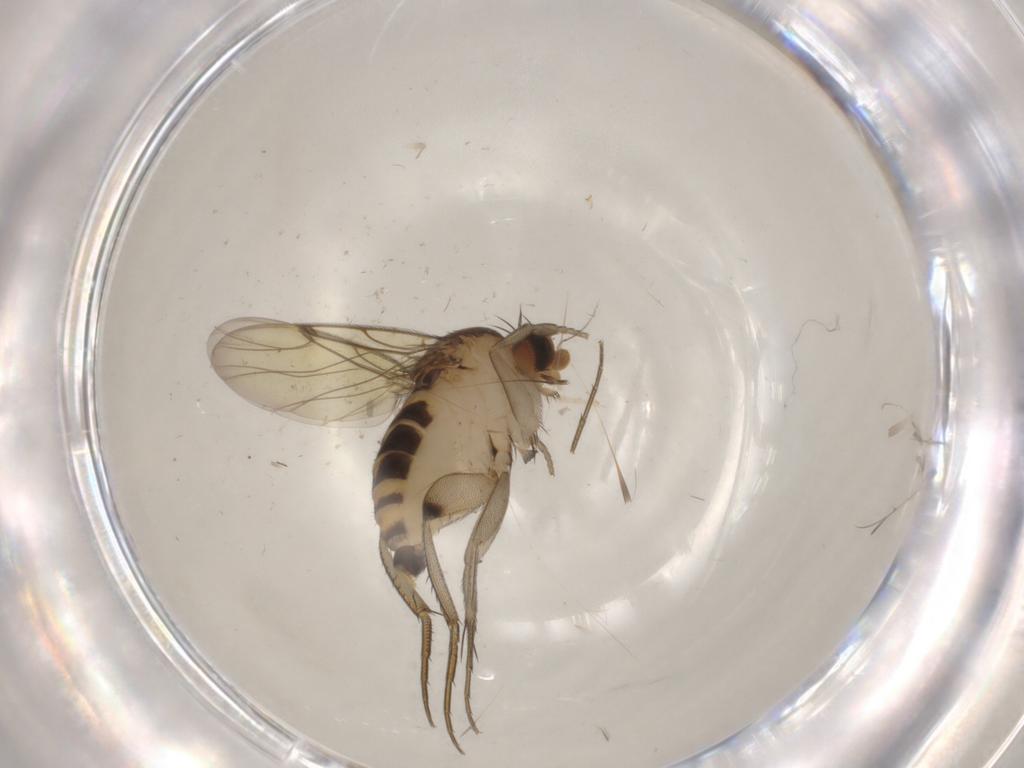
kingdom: Animalia
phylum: Arthropoda
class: Insecta
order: Diptera
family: Phoridae
